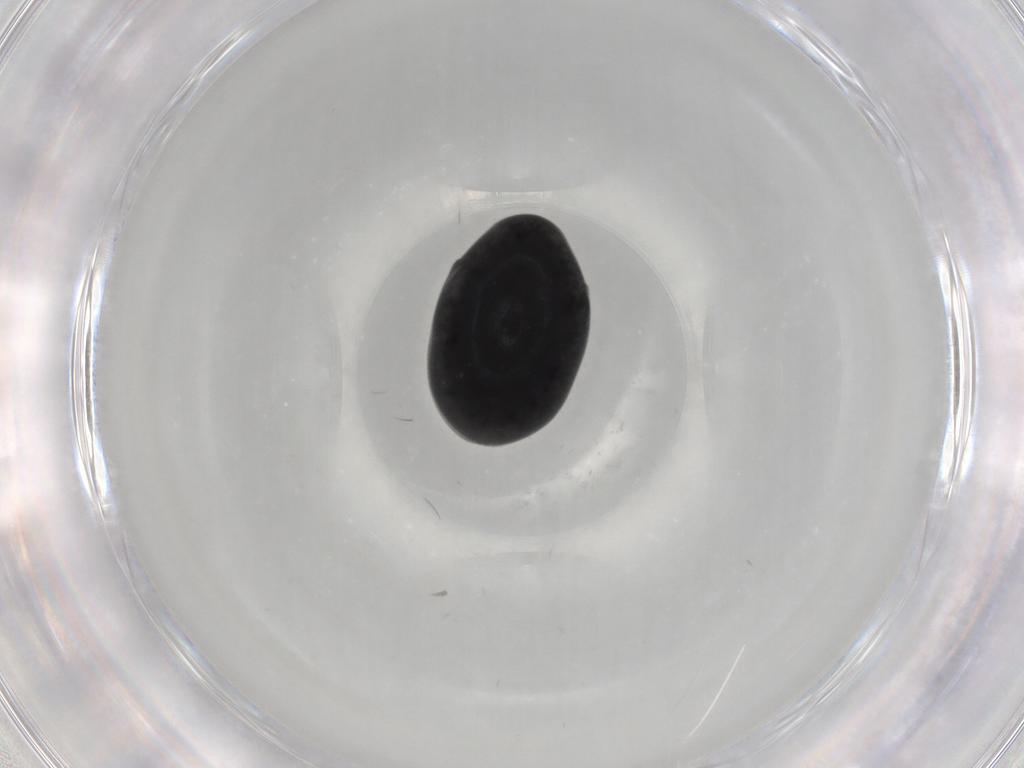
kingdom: Animalia
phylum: Arthropoda
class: Insecta
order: Coleoptera
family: Ptinidae
